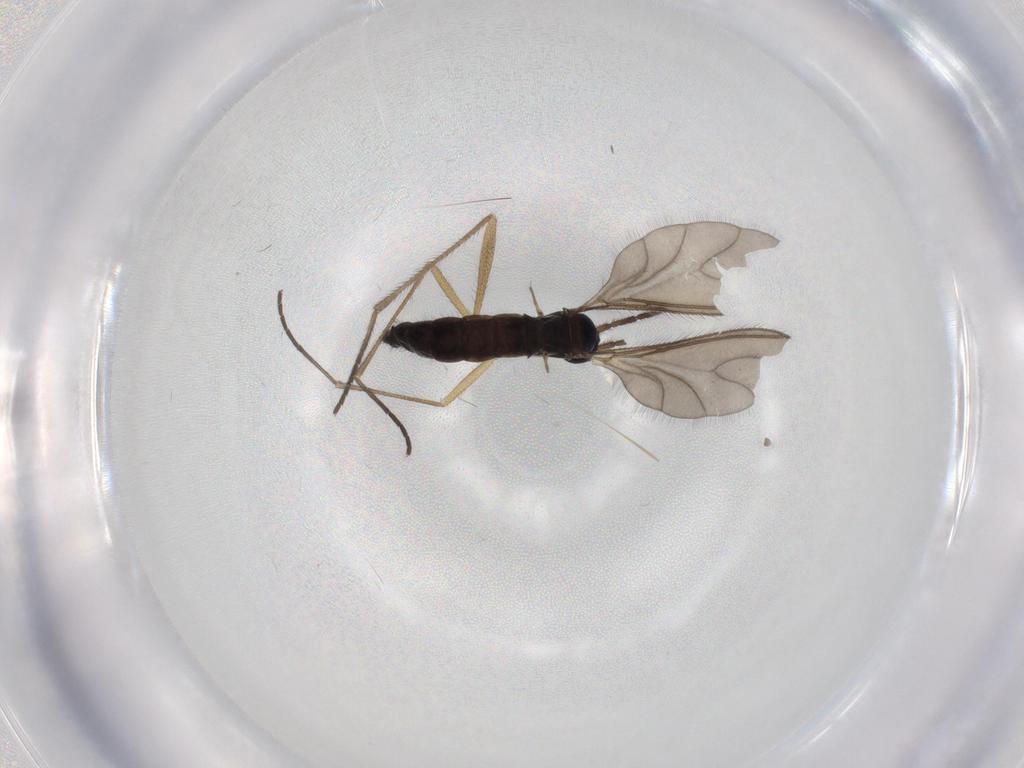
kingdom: Animalia
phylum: Arthropoda
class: Insecta
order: Diptera
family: Sciaridae
